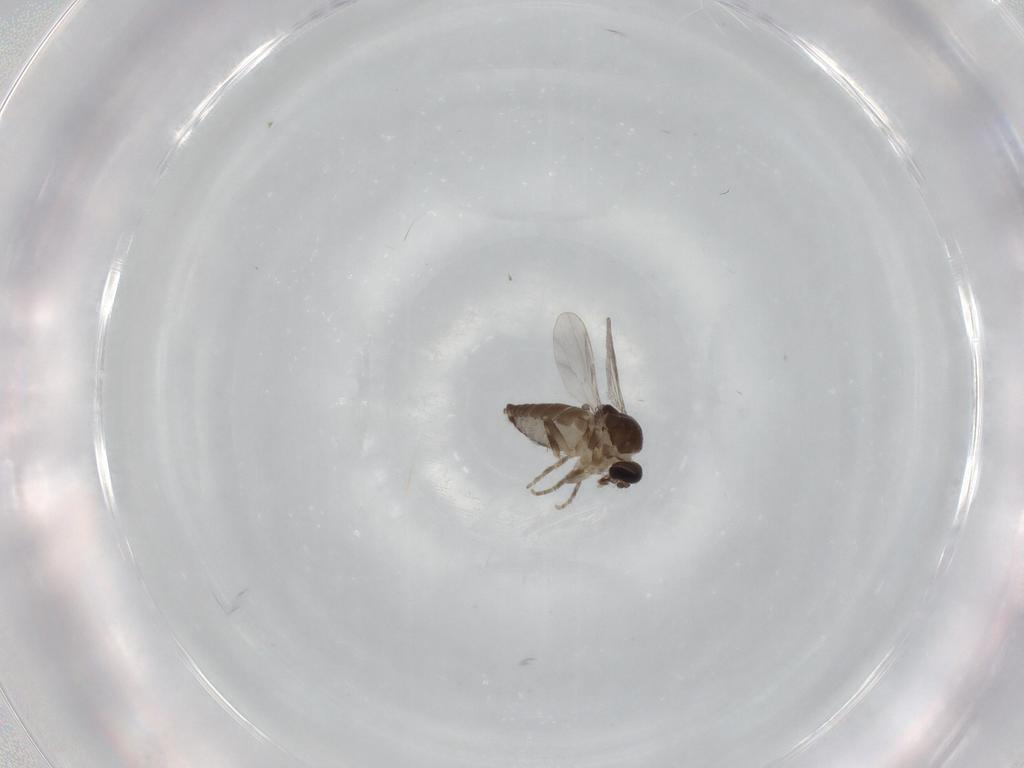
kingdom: Animalia
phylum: Arthropoda
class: Insecta
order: Diptera
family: Ceratopogonidae
